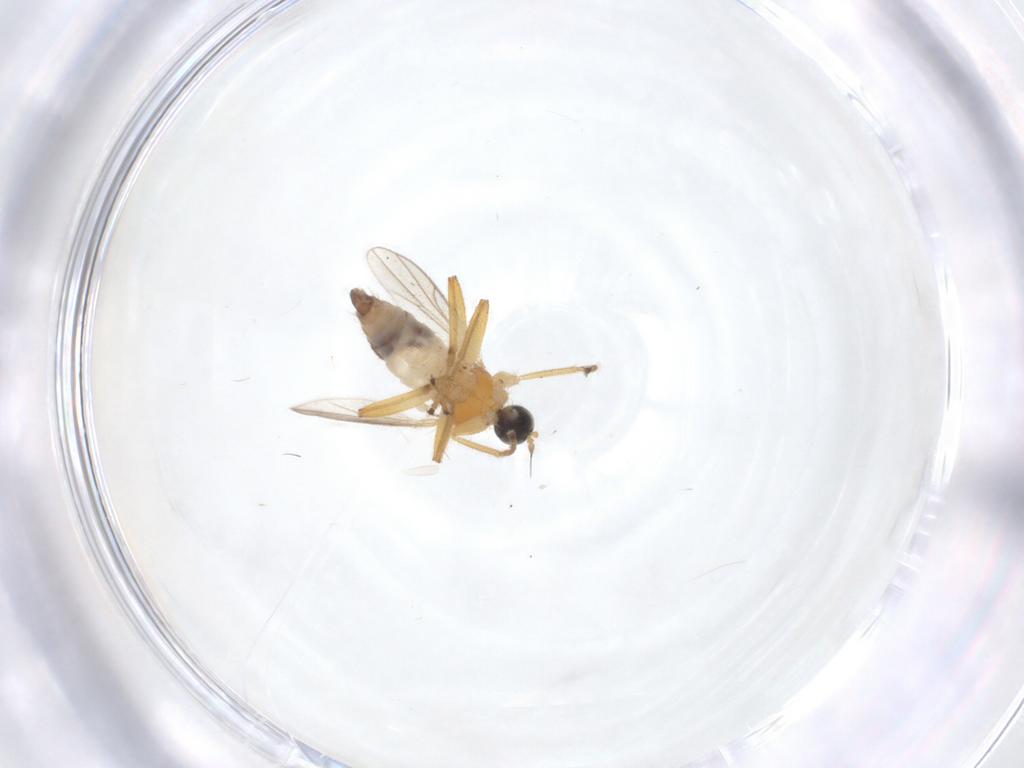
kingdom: Animalia
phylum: Arthropoda
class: Insecta
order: Diptera
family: Hybotidae
